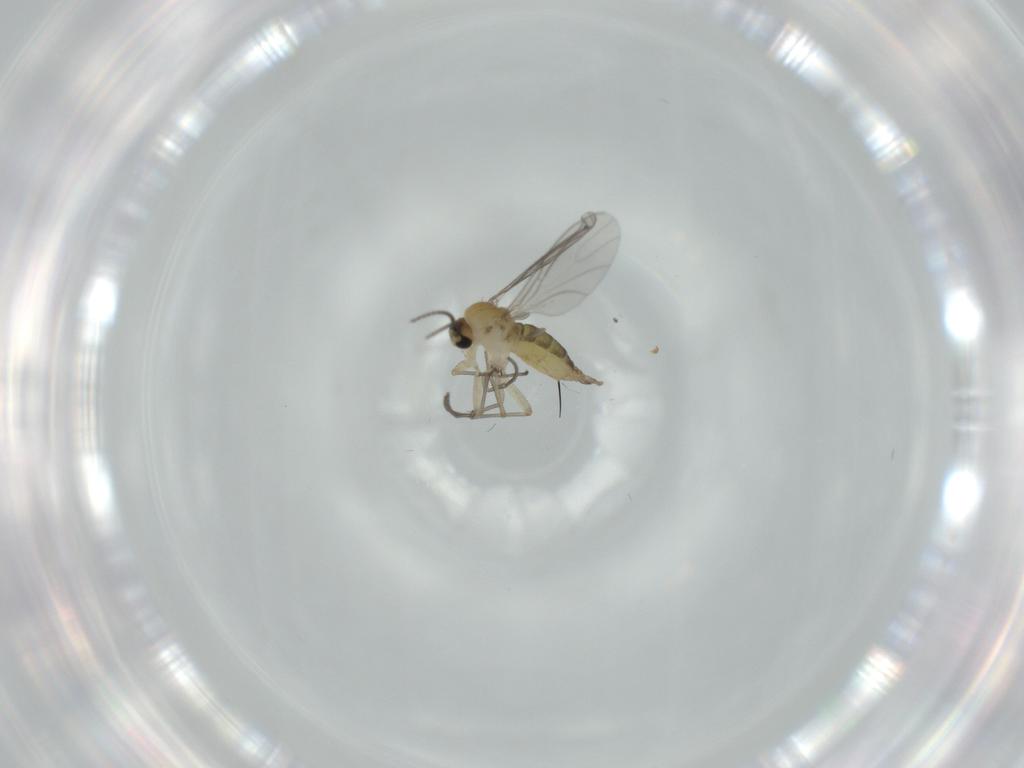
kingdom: Animalia
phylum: Arthropoda
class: Insecta
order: Diptera
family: Sciaridae
